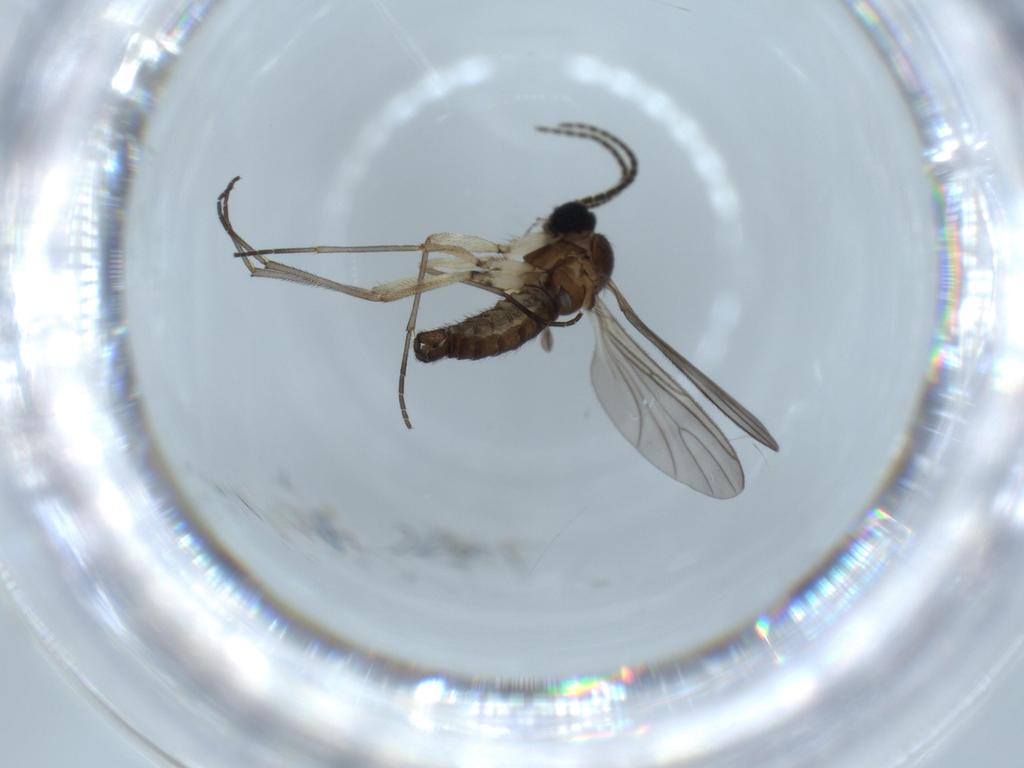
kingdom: Animalia
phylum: Arthropoda
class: Insecta
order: Diptera
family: Sciaridae
